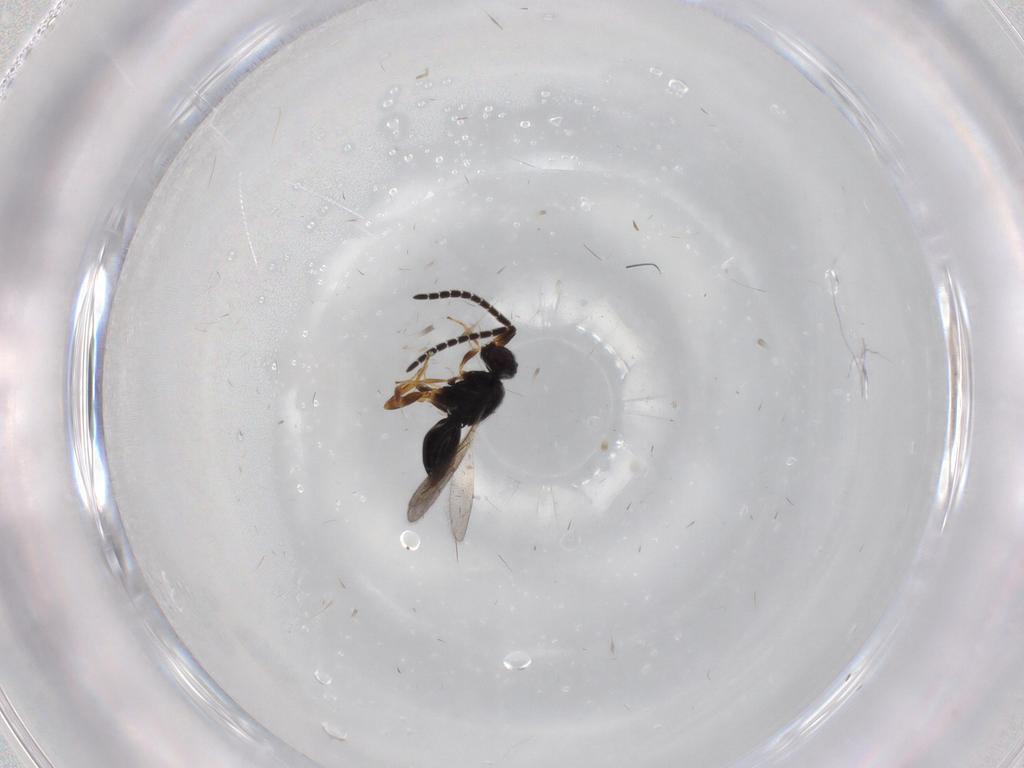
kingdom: Animalia
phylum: Arthropoda
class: Insecta
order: Hymenoptera
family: Ceraphronidae
